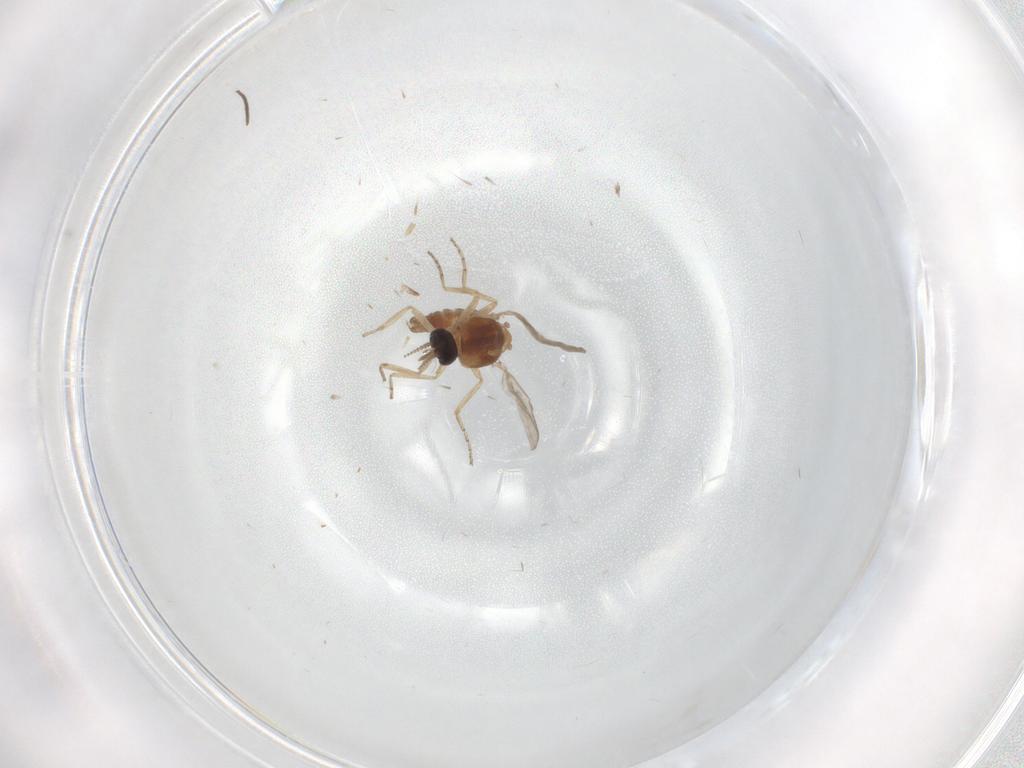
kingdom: Animalia
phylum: Arthropoda
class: Insecta
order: Diptera
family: Ceratopogonidae
